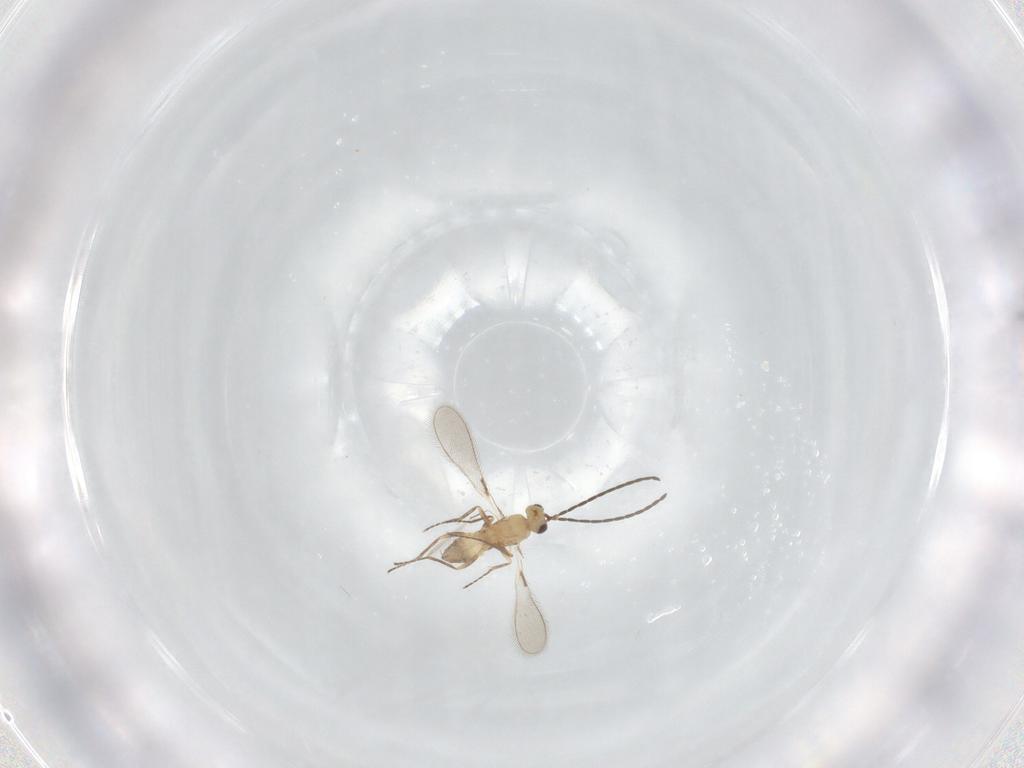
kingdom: Animalia
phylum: Arthropoda
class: Insecta
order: Hymenoptera
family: Mymaridae
